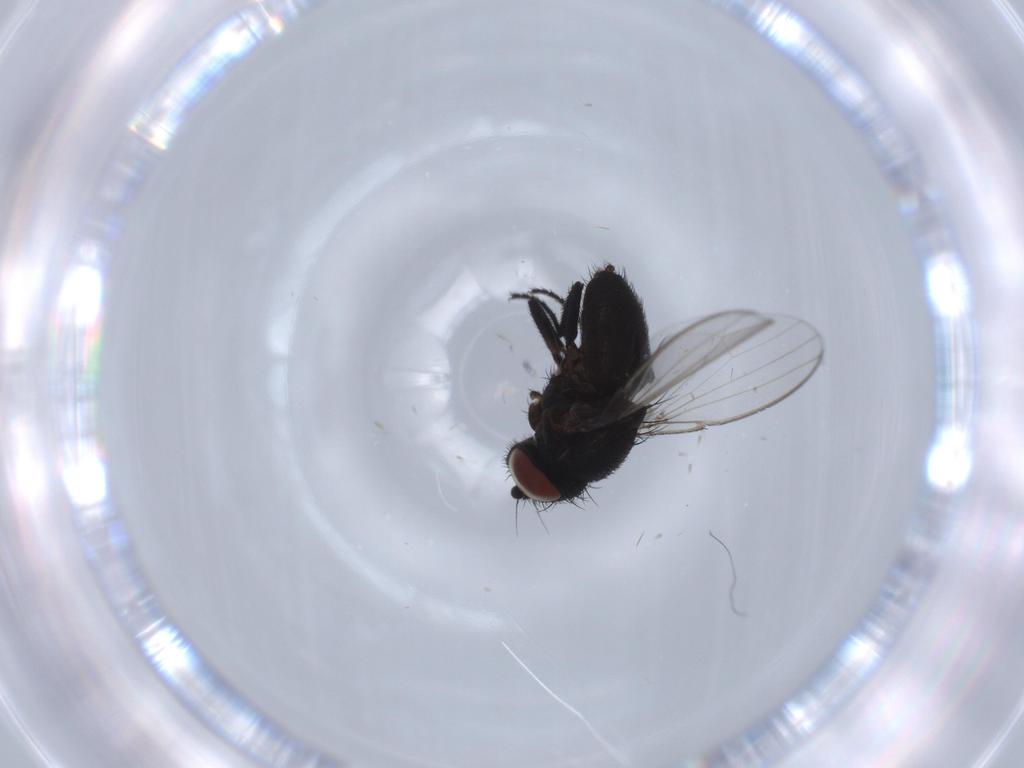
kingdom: Animalia
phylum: Arthropoda
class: Insecta
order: Diptera
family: Milichiidae
